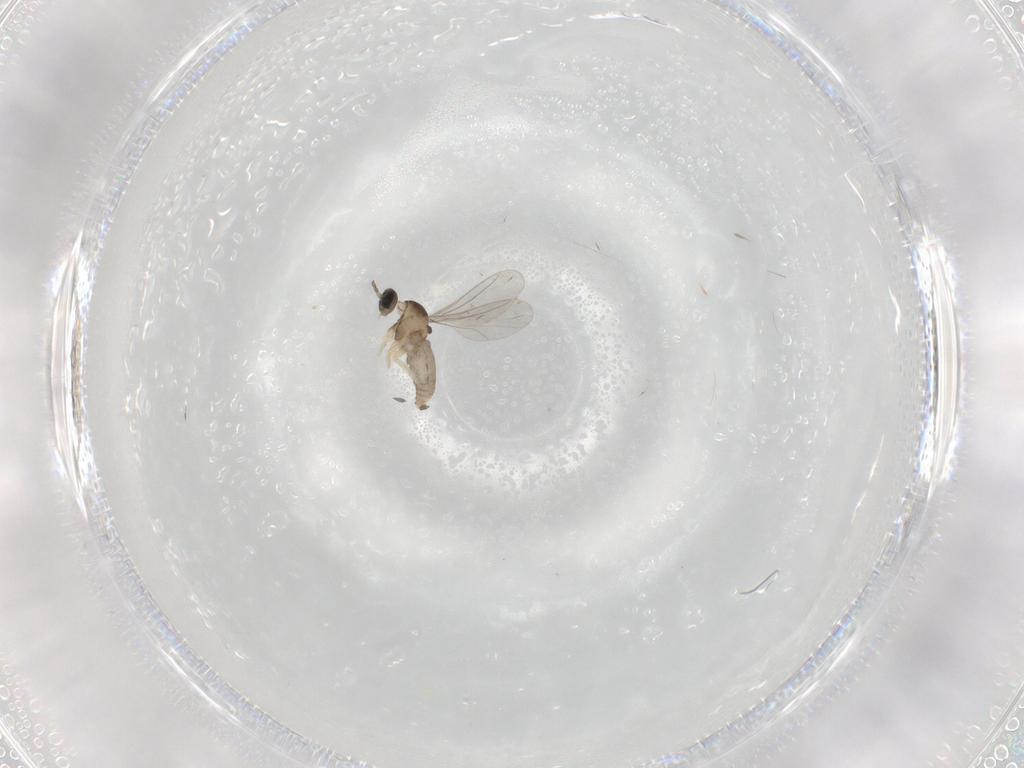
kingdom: Animalia
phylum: Arthropoda
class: Insecta
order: Diptera
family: Cecidomyiidae
